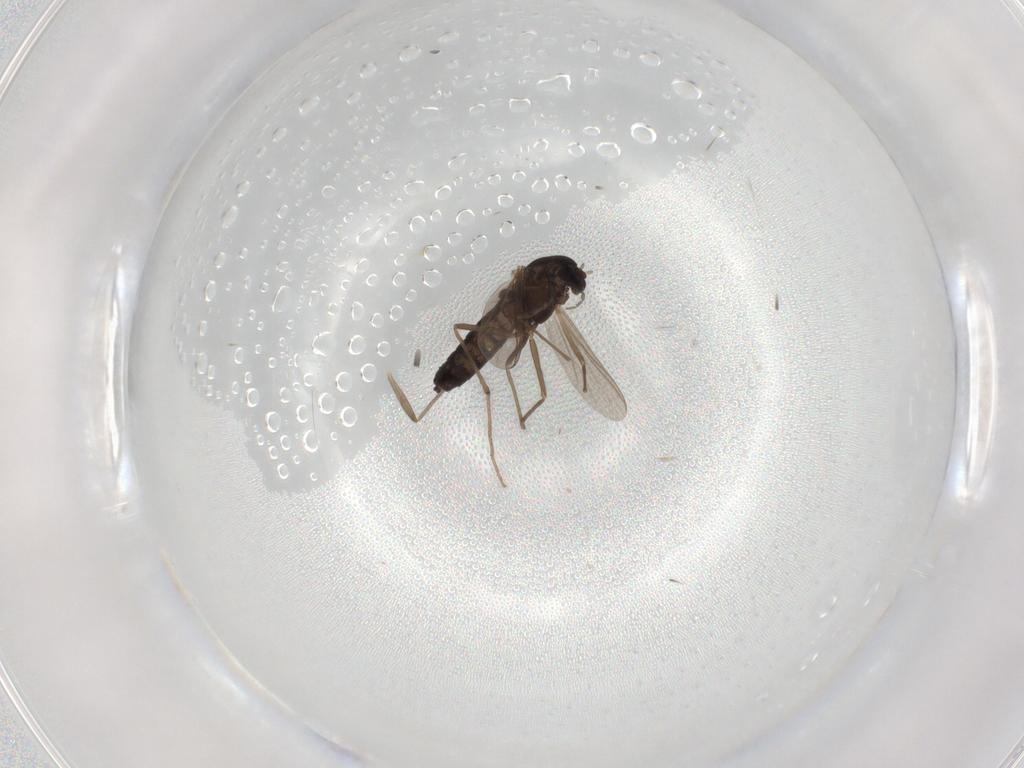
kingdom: Animalia
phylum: Arthropoda
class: Insecta
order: Diptera
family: Chironomidae
